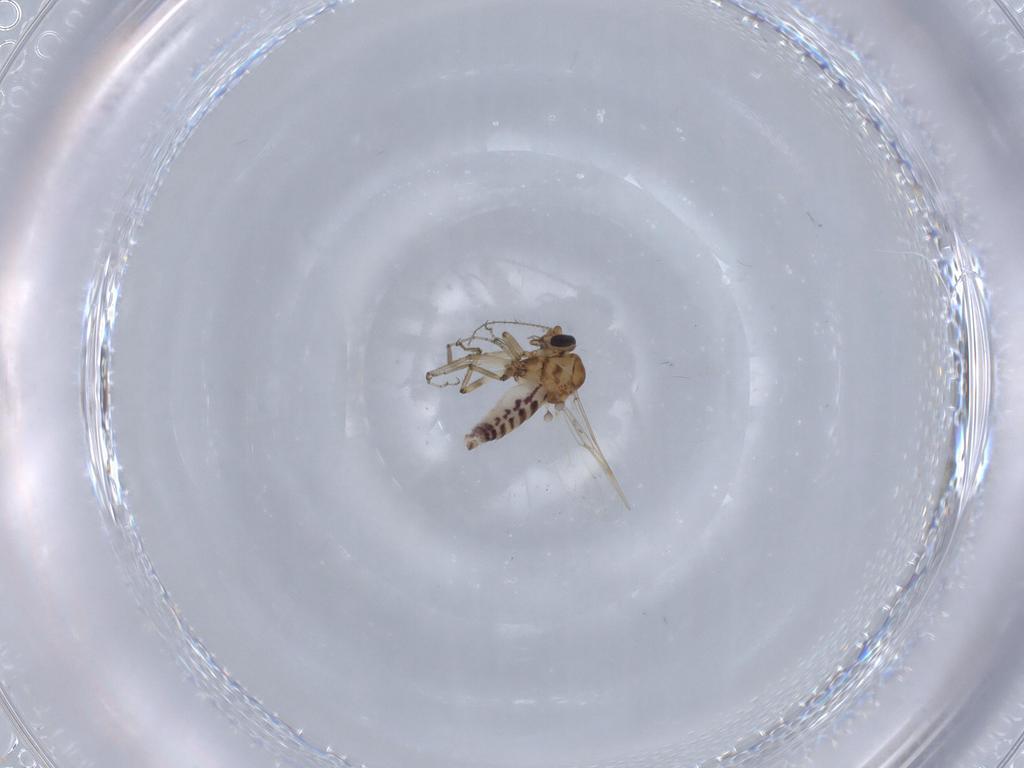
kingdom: Animalia
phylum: Arthropoda
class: Insecta
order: Diptera
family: Ceratopogonidae
